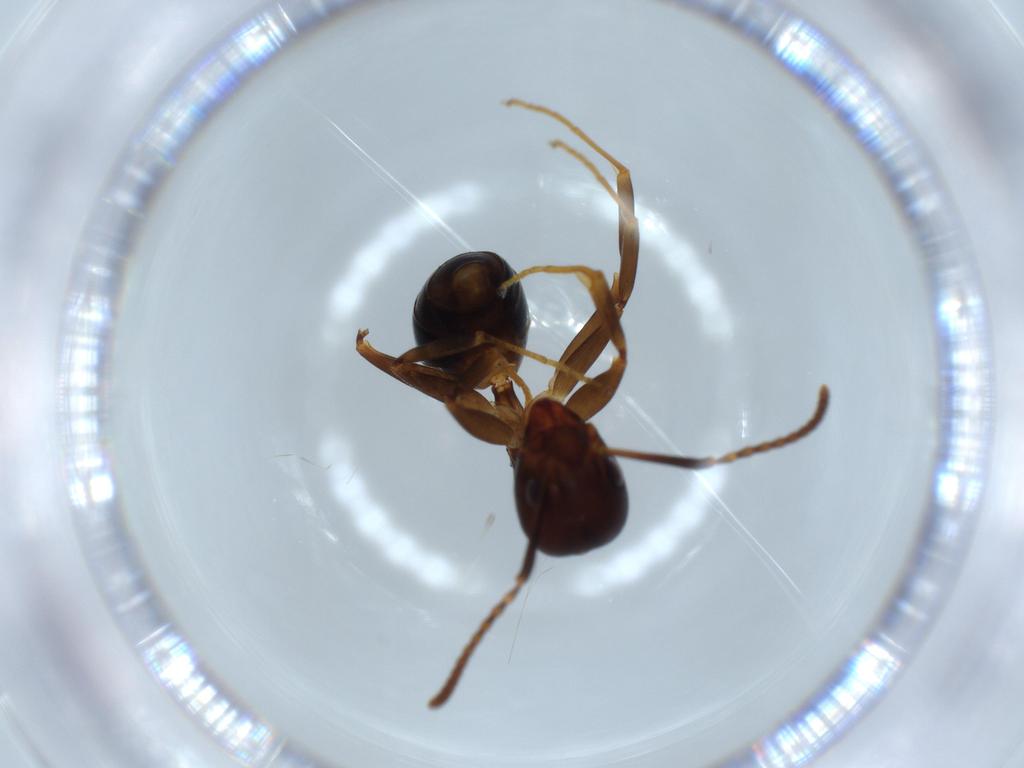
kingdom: Animalia
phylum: Arthropoda
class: Insecta
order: Hymenoptera
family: Formicidae
